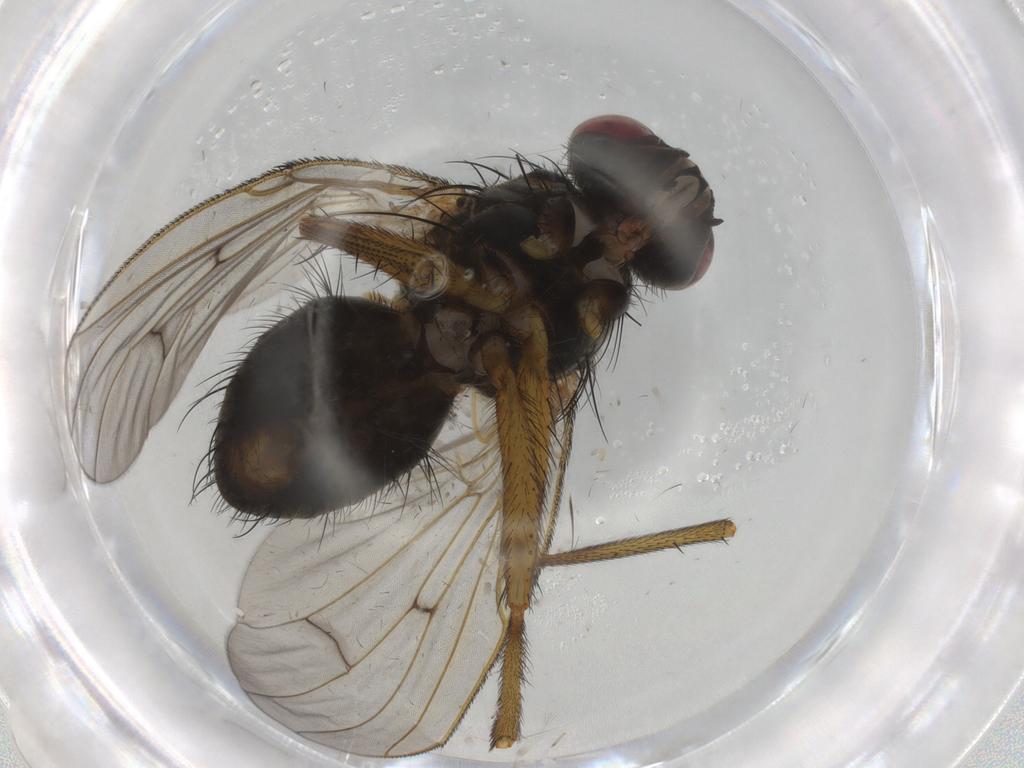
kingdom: Animalia
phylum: Arthropoda
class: Insecta
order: Diptera
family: Muscidae
